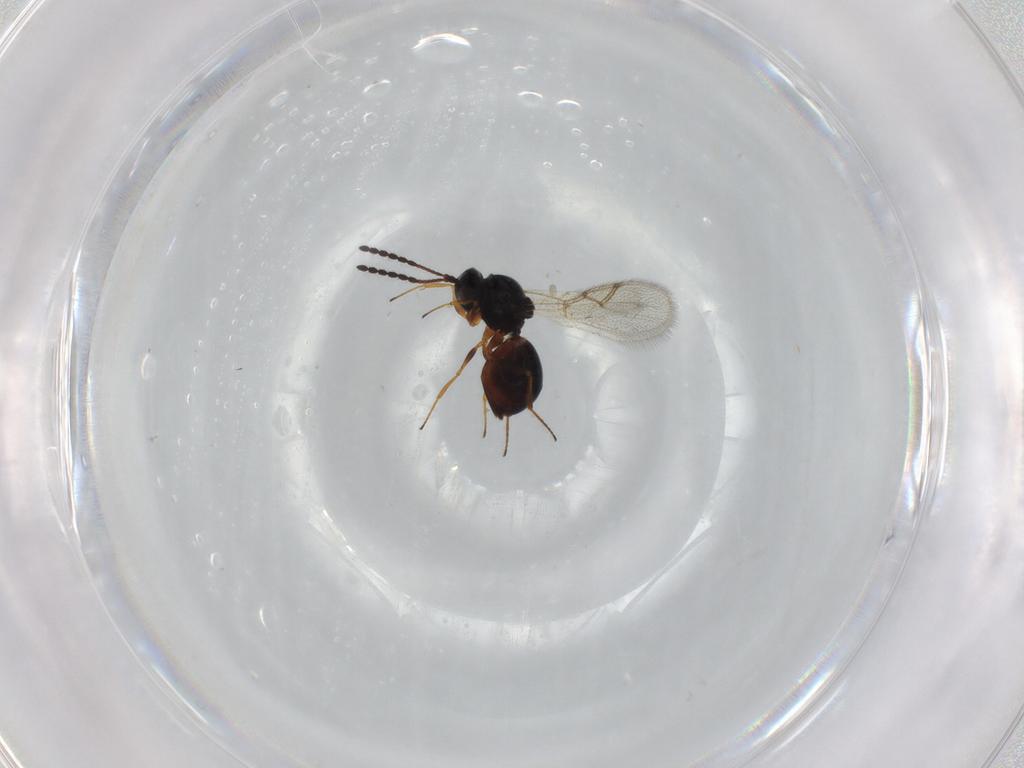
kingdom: Animalia
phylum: Arthropoda
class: Insecta
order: Hymenoptera
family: Figitidae
